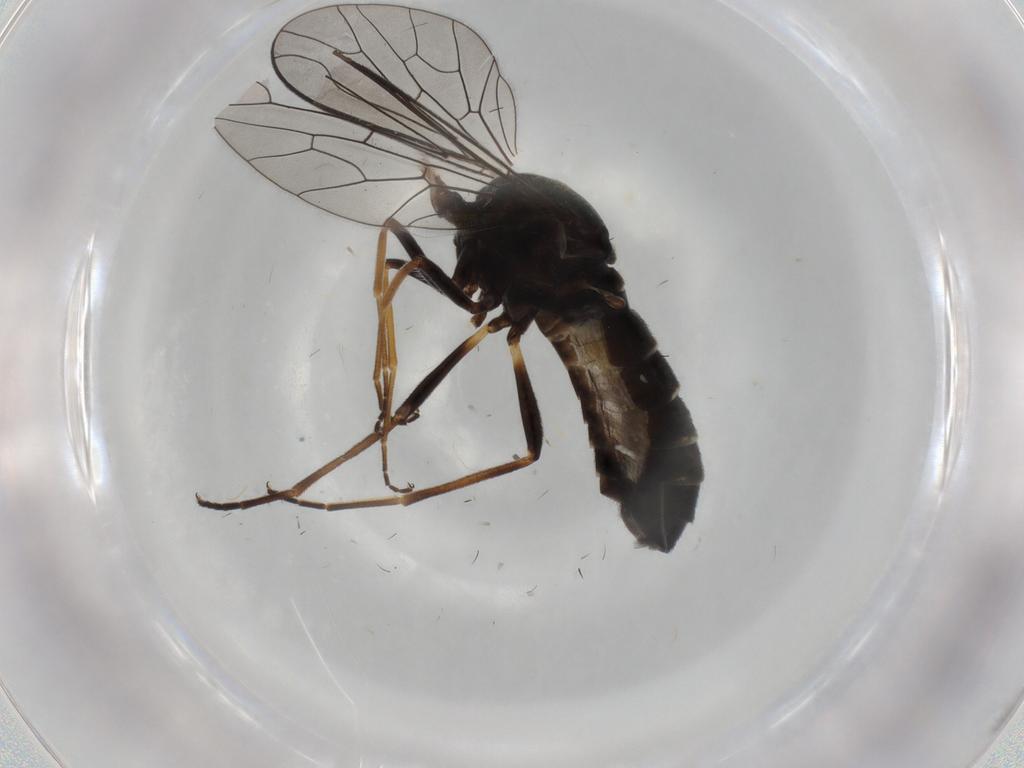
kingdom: Animalia
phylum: Arthropoda
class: Insecta
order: Diptera
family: Bombyliidae
